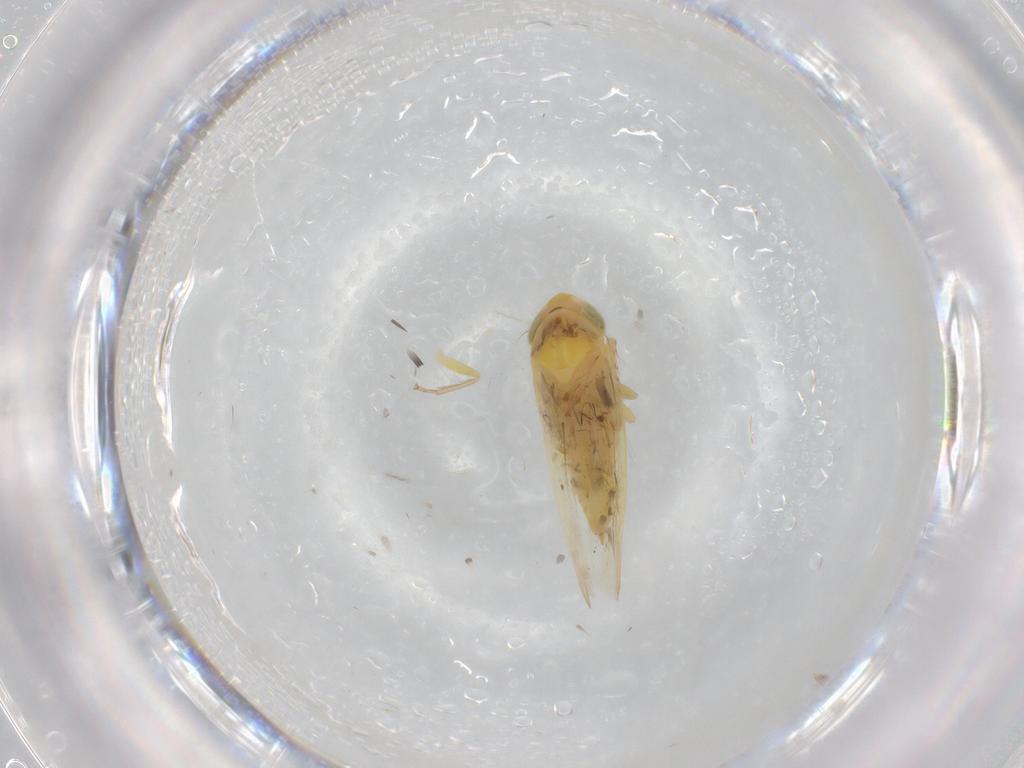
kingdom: Animalia
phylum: Arthropoda
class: Insecta
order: Hemiptera
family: Cicadellidae
